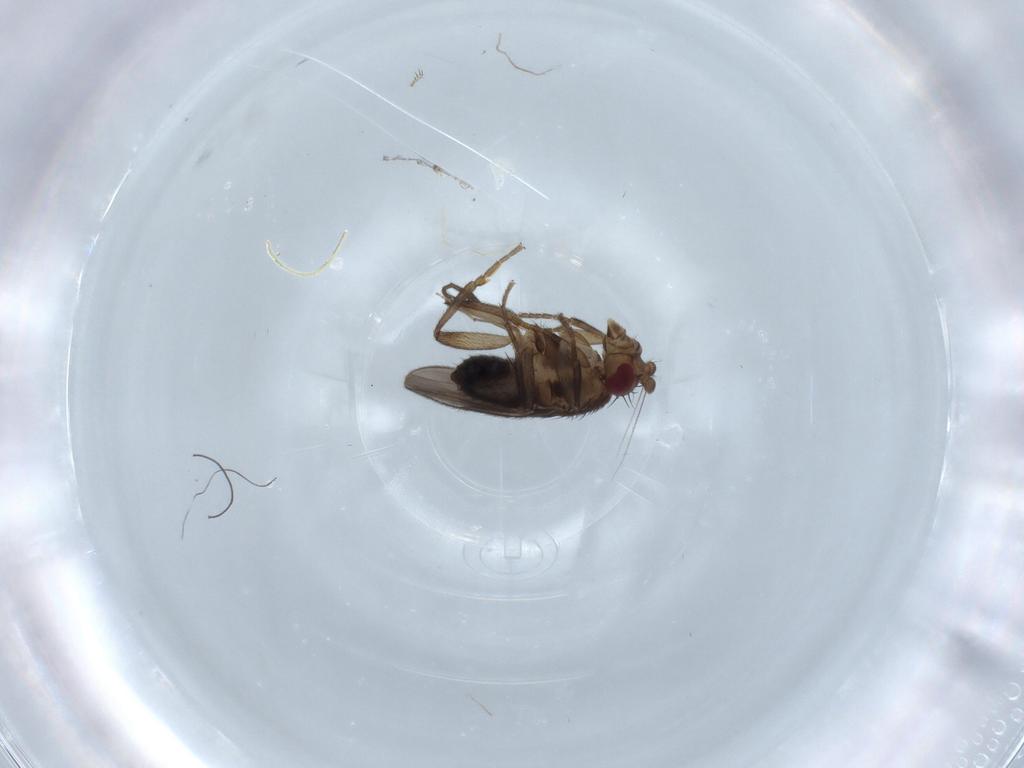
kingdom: Animalia
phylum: Arthropoda
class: Insecta
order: Diptera
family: Sphaeroceridae
